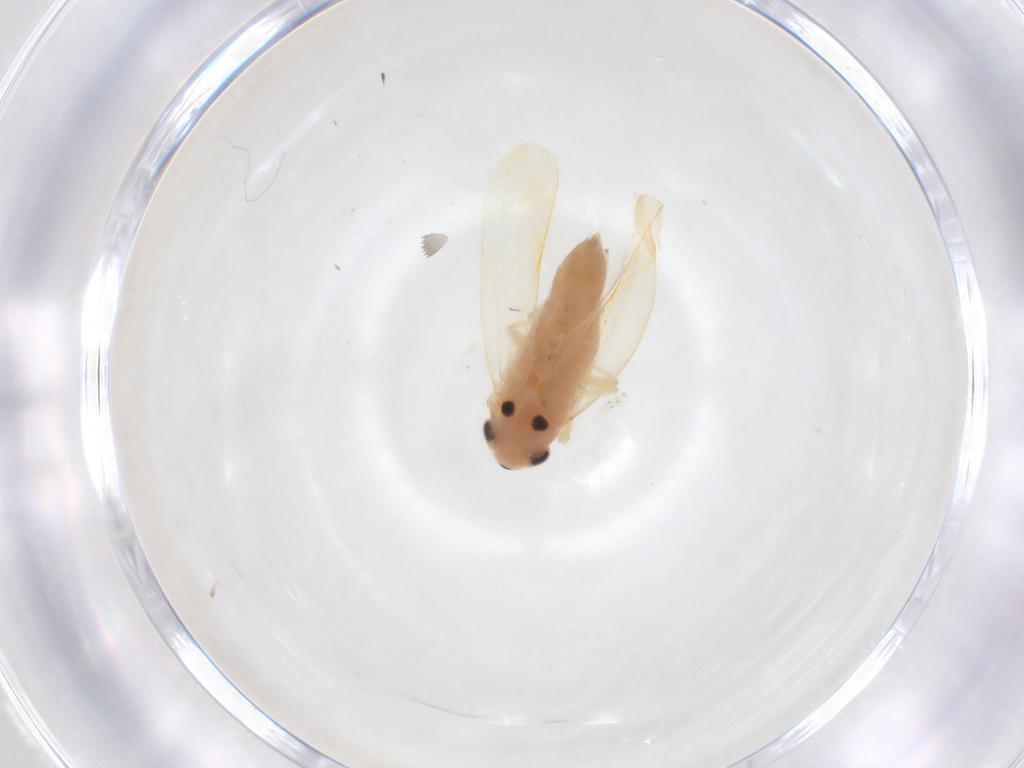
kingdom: Animalia
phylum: Arthropoda
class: Insecta
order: Hemiptera
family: Cicadellidae
